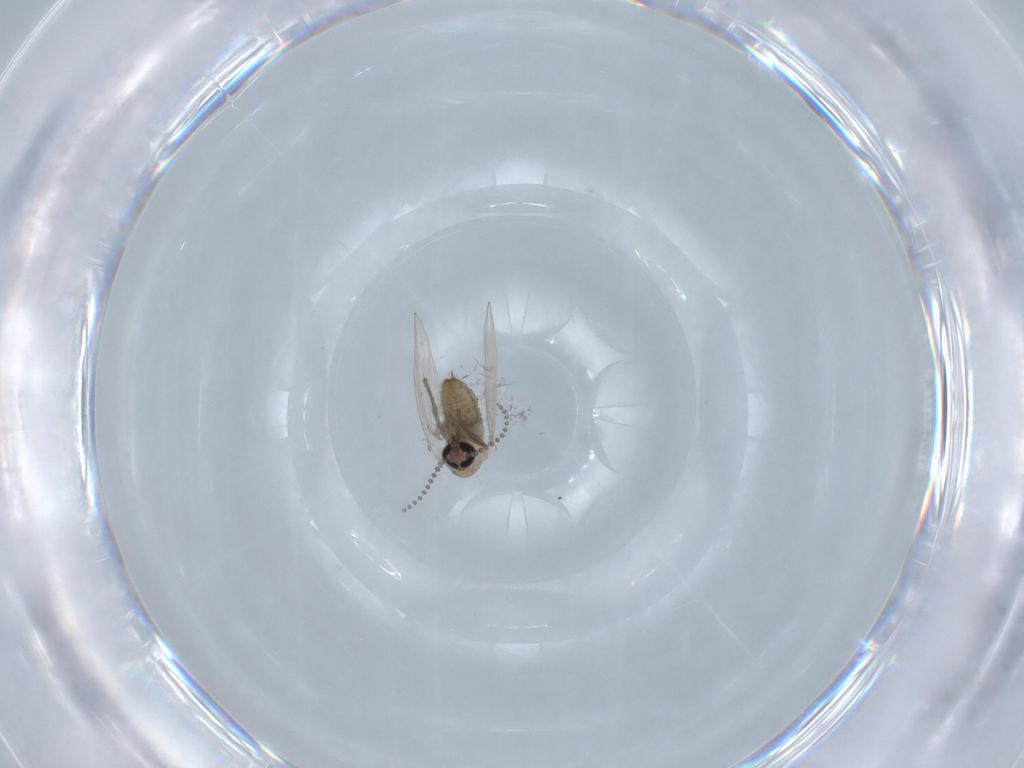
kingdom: Animalia
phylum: Arthropoda
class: Insecta
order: Diptera
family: Psychodidae
